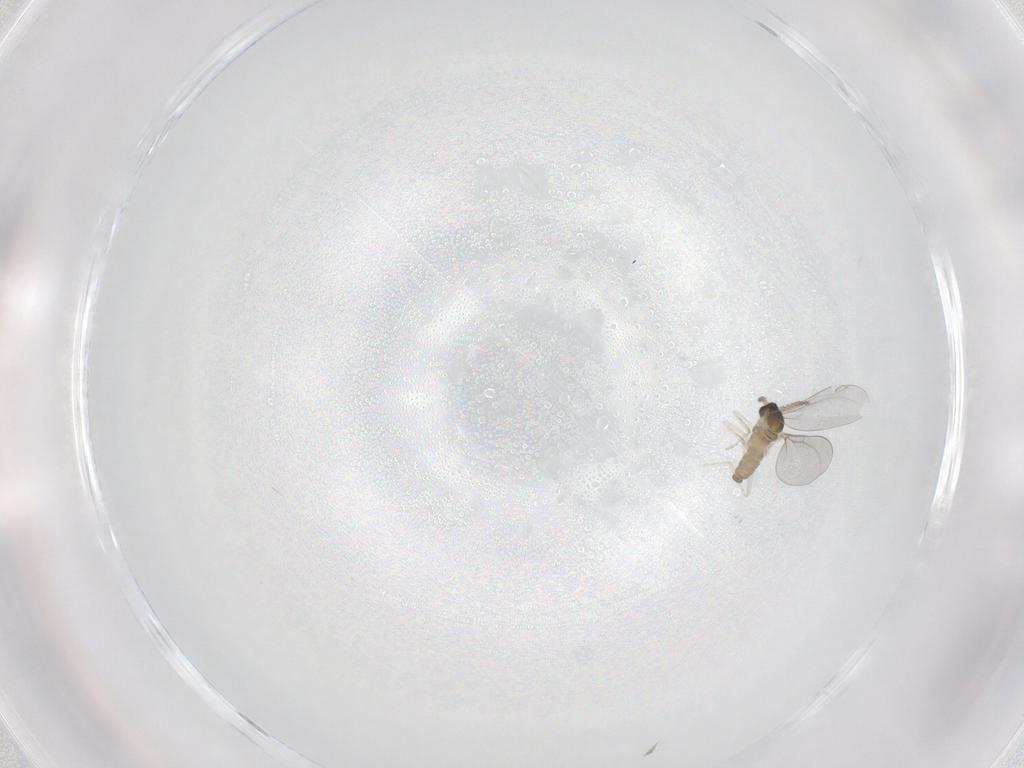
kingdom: Animalia
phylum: Arthropoda
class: Insecta
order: Diptera
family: Cecidomyiidae
